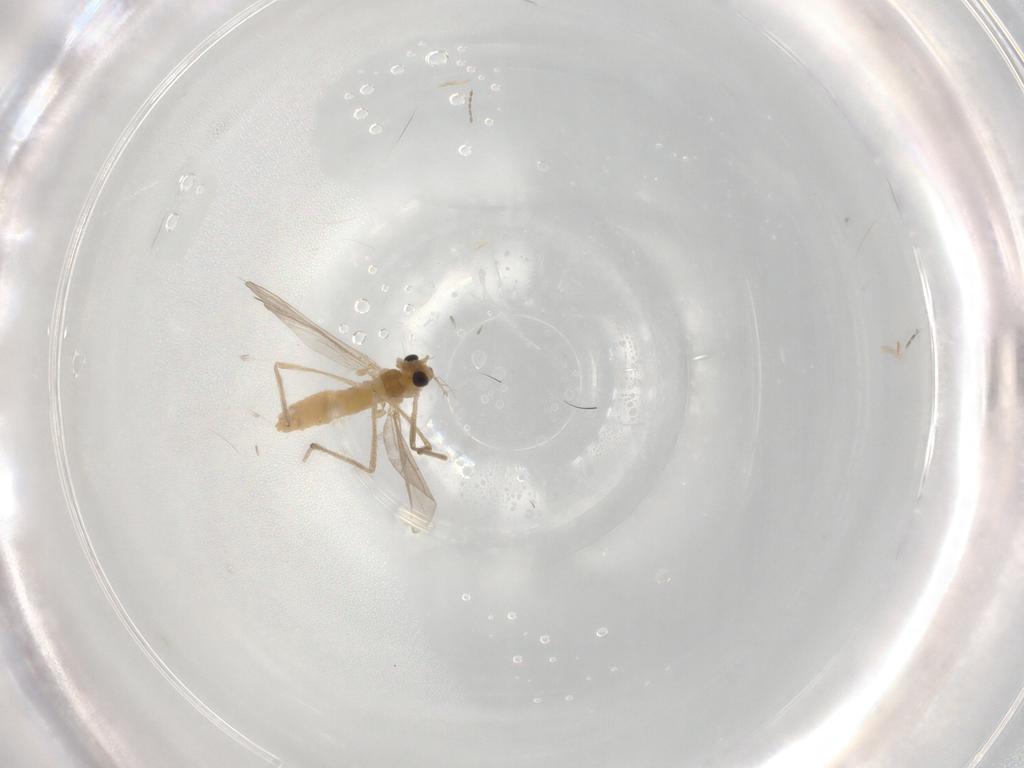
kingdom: Animalia
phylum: Arthropoda
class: Insecta
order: Diptera
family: Chironomidae
